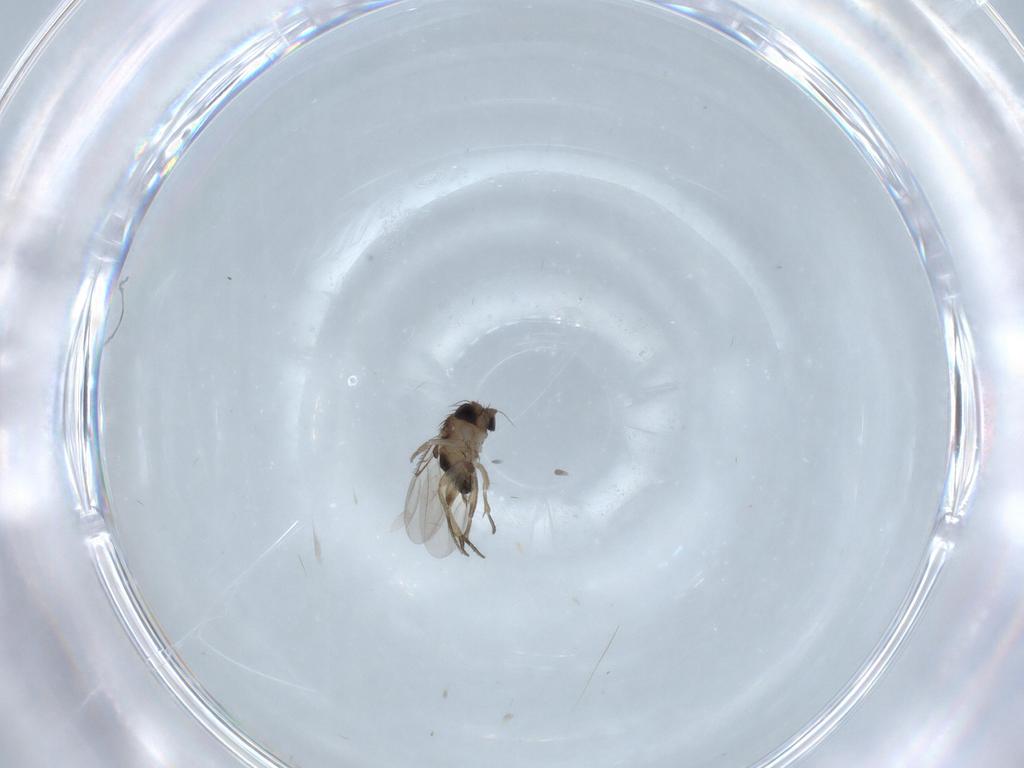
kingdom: Animalia
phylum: Arthropoda
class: Insecta
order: Diptera
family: Phoridae
